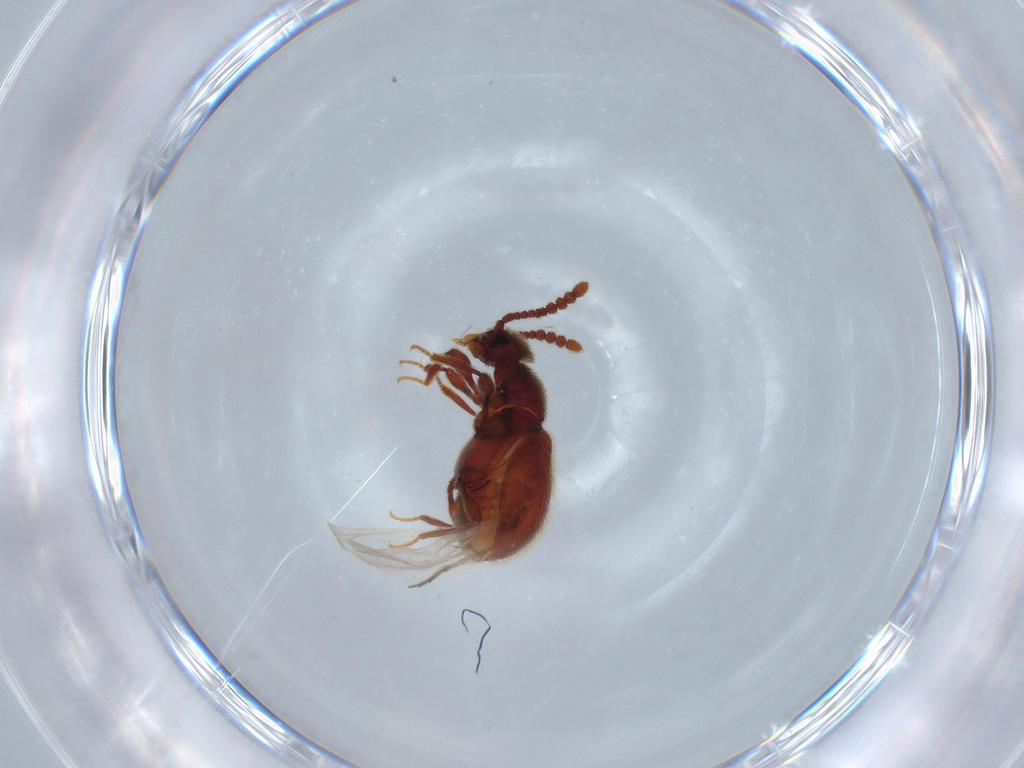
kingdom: Animalia
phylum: Arthropoda
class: Insecta
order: Coleoptera
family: Staphylinidae
